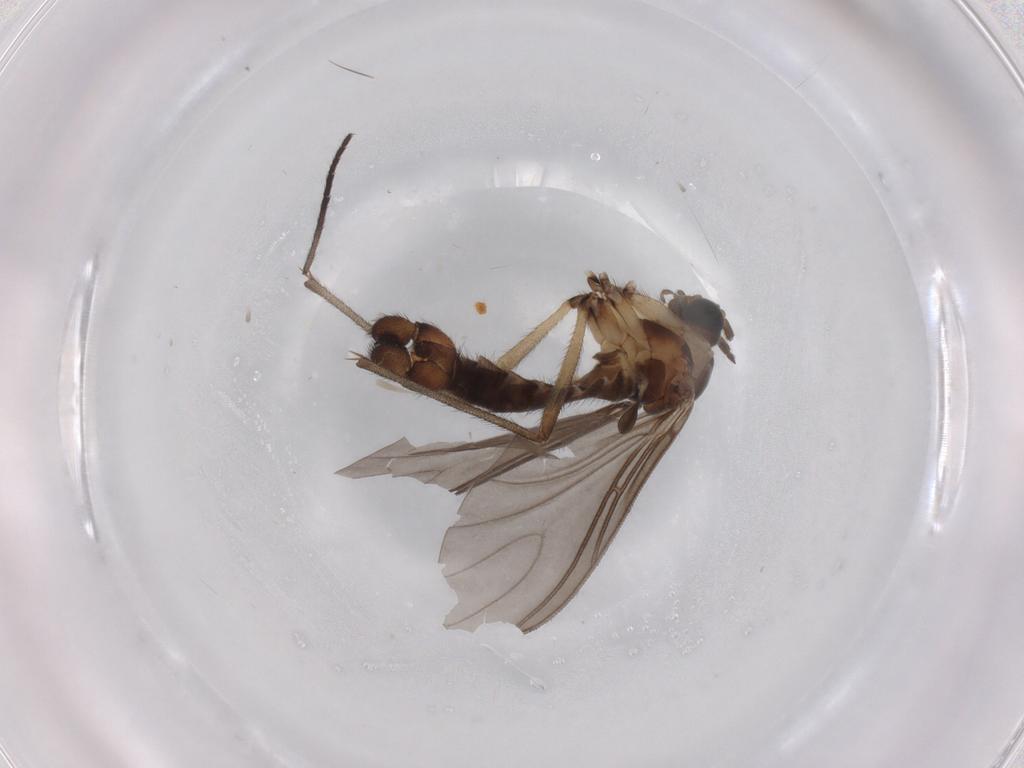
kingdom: Animalia
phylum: Arthropoda
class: Insecta
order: Diptera
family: Sciaridae
